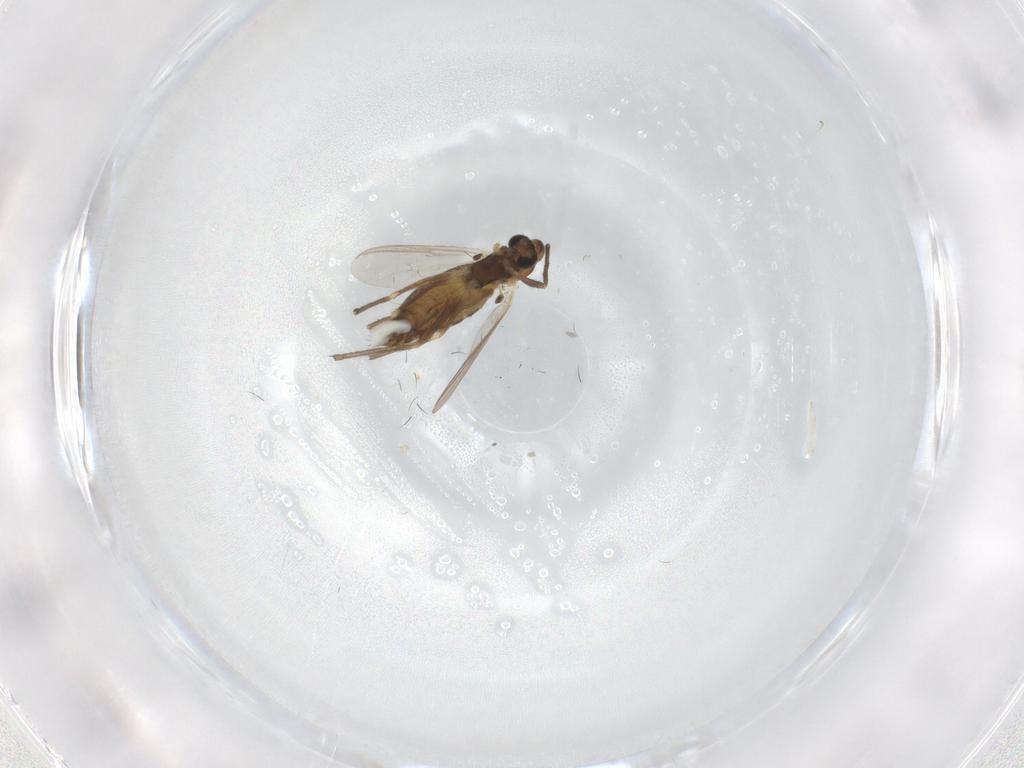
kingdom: Animalia
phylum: Arthropoda
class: Insecta
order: Diptera
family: Chironomidae
